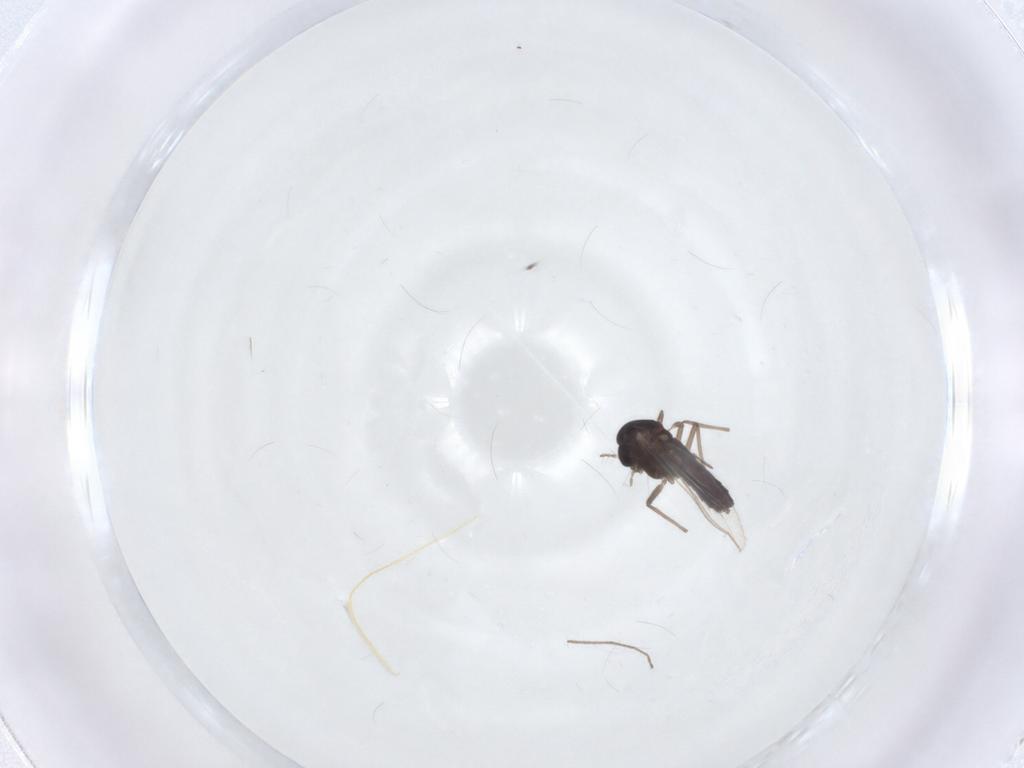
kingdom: Animalia
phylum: Arthropoda
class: Insecta
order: Diptera
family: Chironomidae
